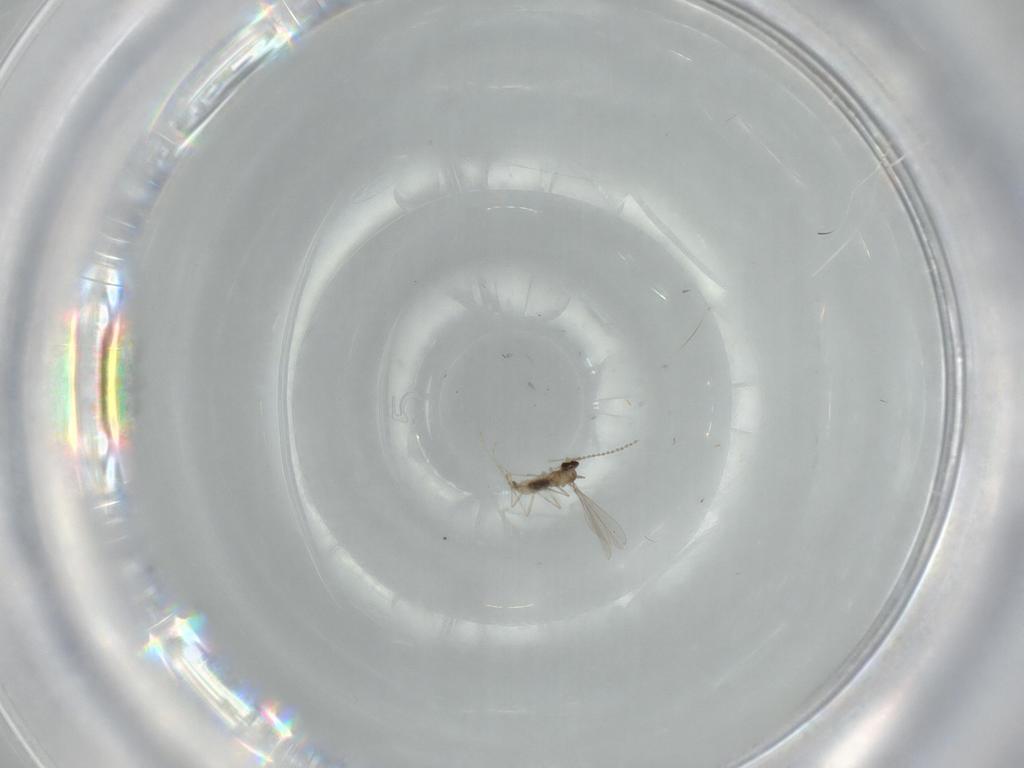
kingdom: Animalia
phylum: Arthropoda
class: Insecta
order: Diptera
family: Cecidomyiidae
